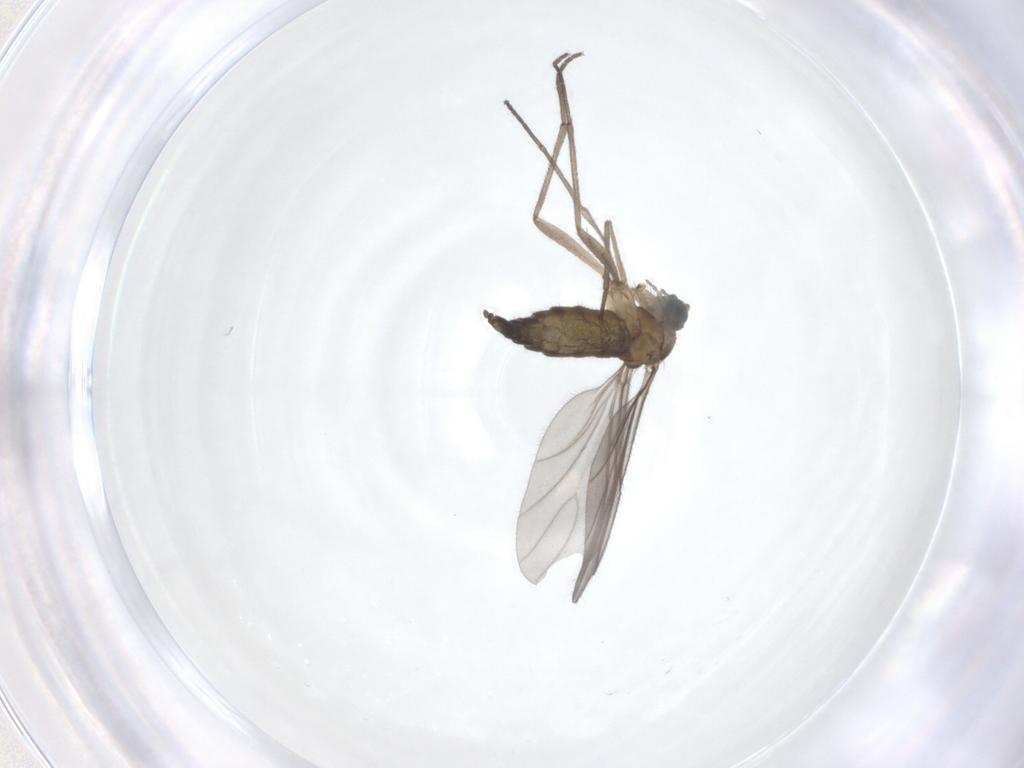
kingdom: Animalia
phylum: Arthropoda
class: Insecta
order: Diptera
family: Sciaridae
